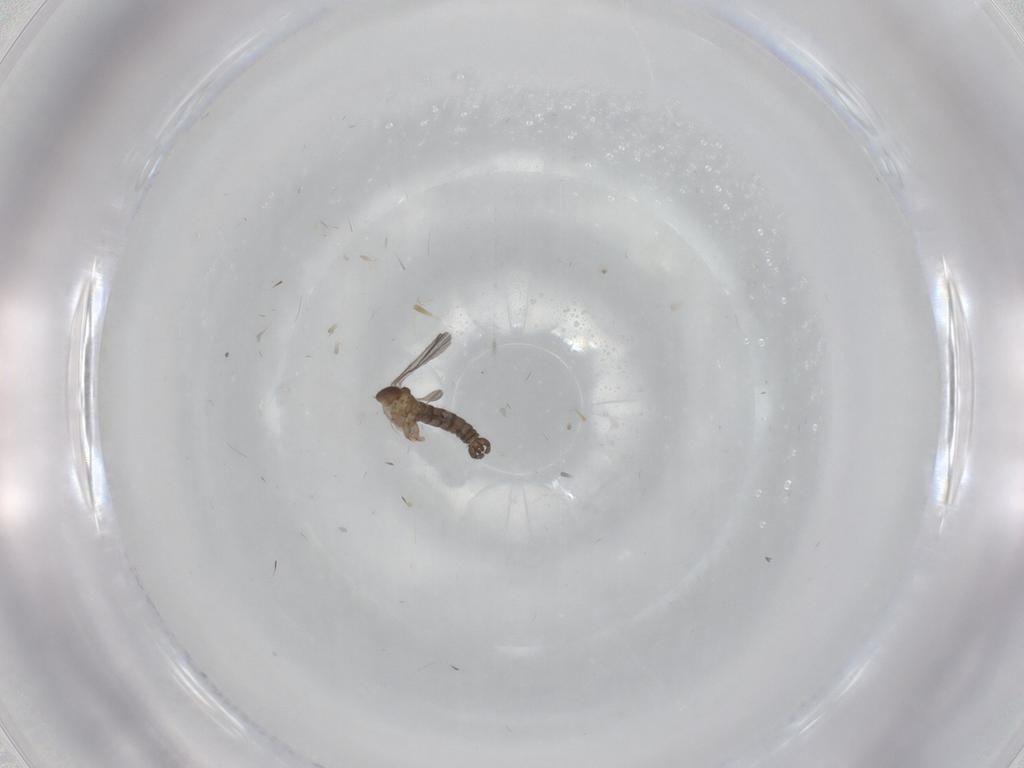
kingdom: Animalia
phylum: Arthropoda
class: Insecta
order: Diptera
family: Sciaridae
